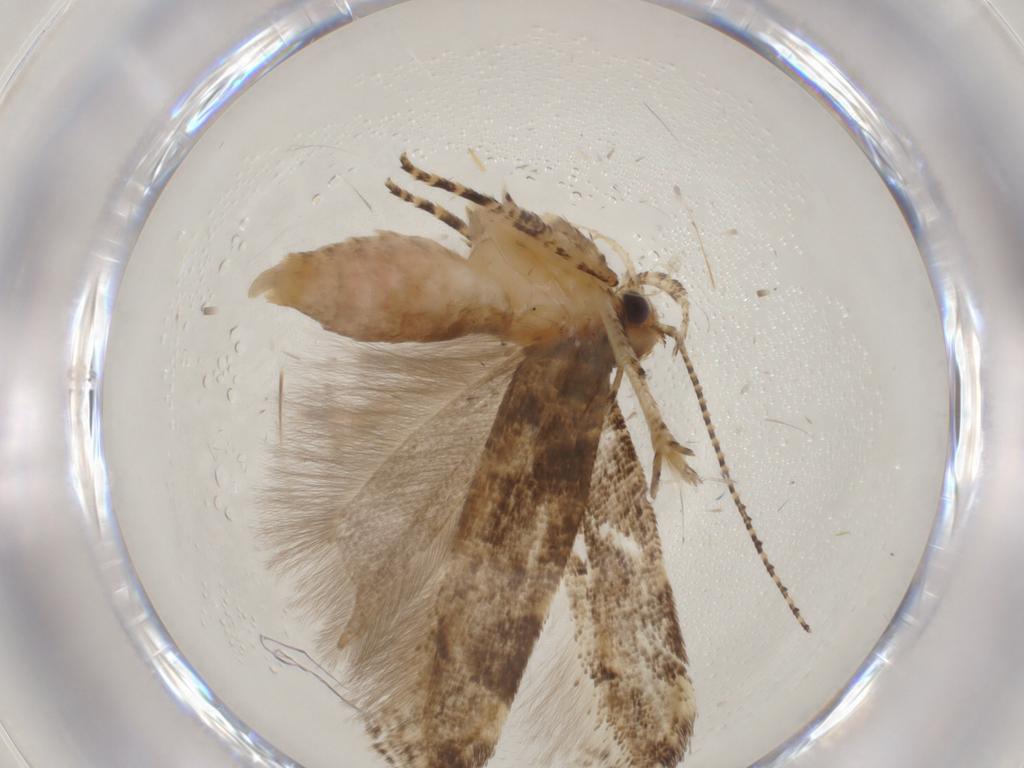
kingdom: Animalia
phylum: Arthropoda
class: Insecta
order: Lepidoptera
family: Gelechiidae
